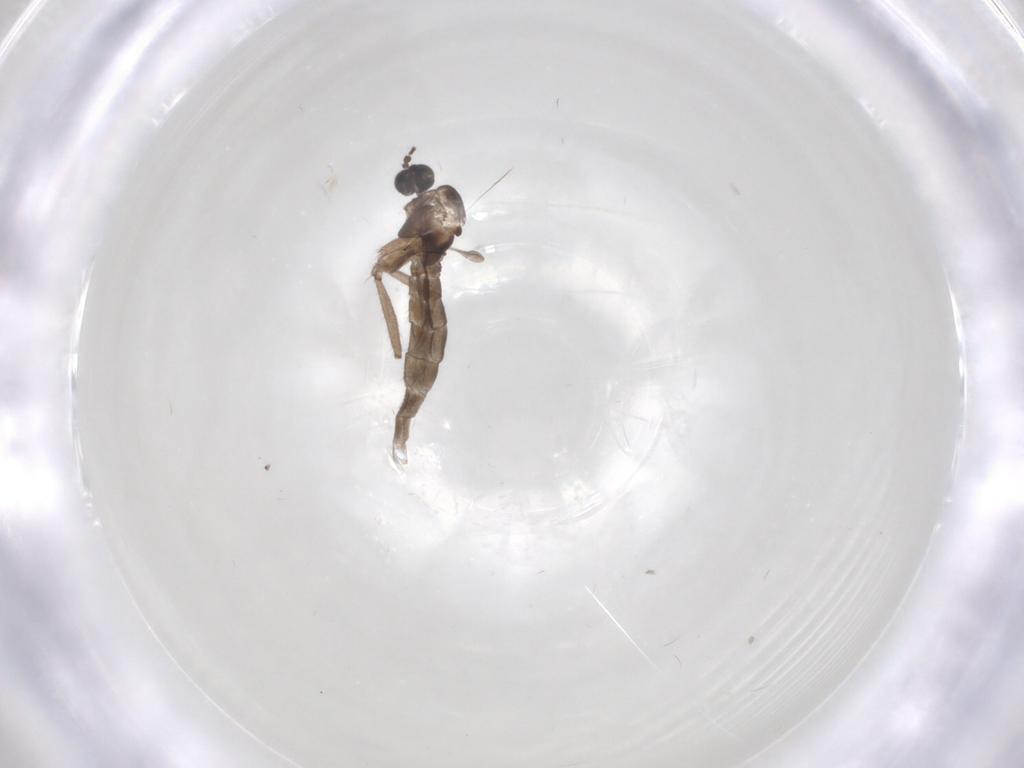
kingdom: Animalia
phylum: Arthropoda
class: Insecta
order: Diptera
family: Sciaridae
